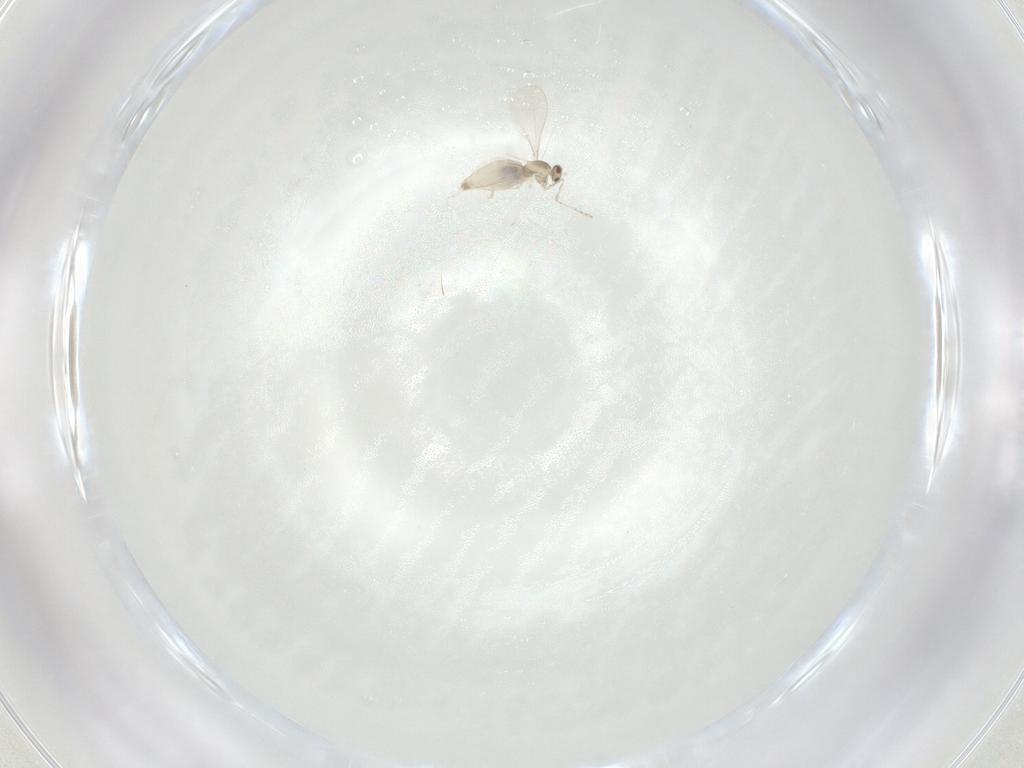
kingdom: Animalia
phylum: Arthropoda
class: Insecta
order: Diptera
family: Cecidomyiidae
